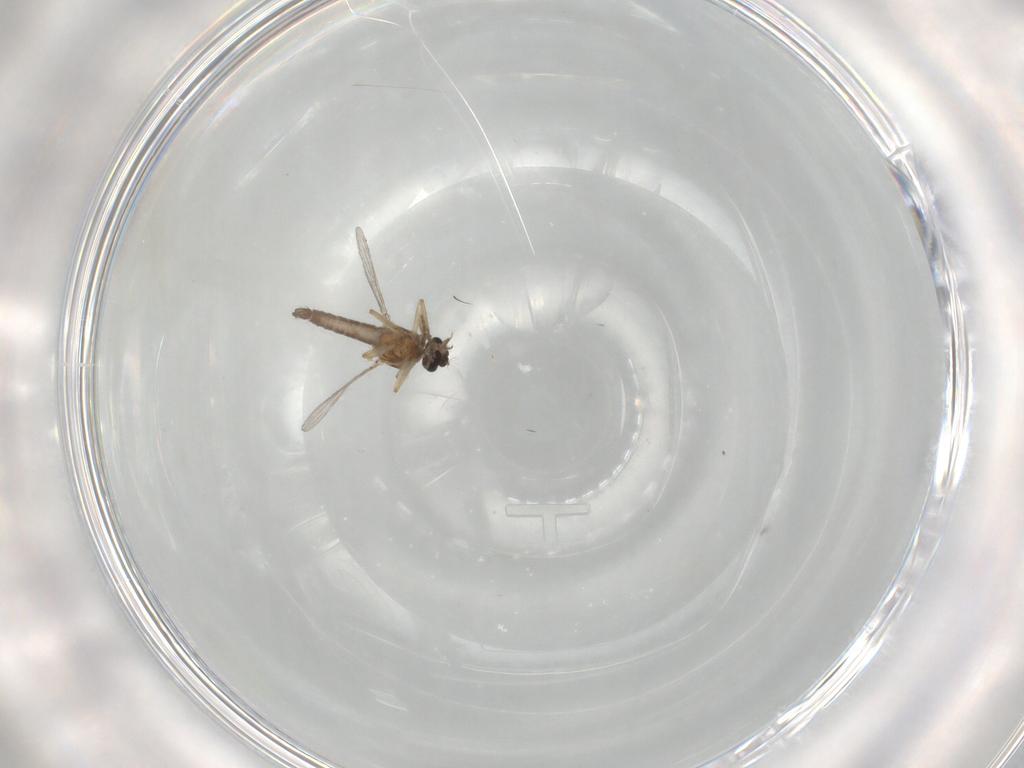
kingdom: Animalia
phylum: Arthropoda
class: Insecta
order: Diptera
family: Ceratopogonidae
